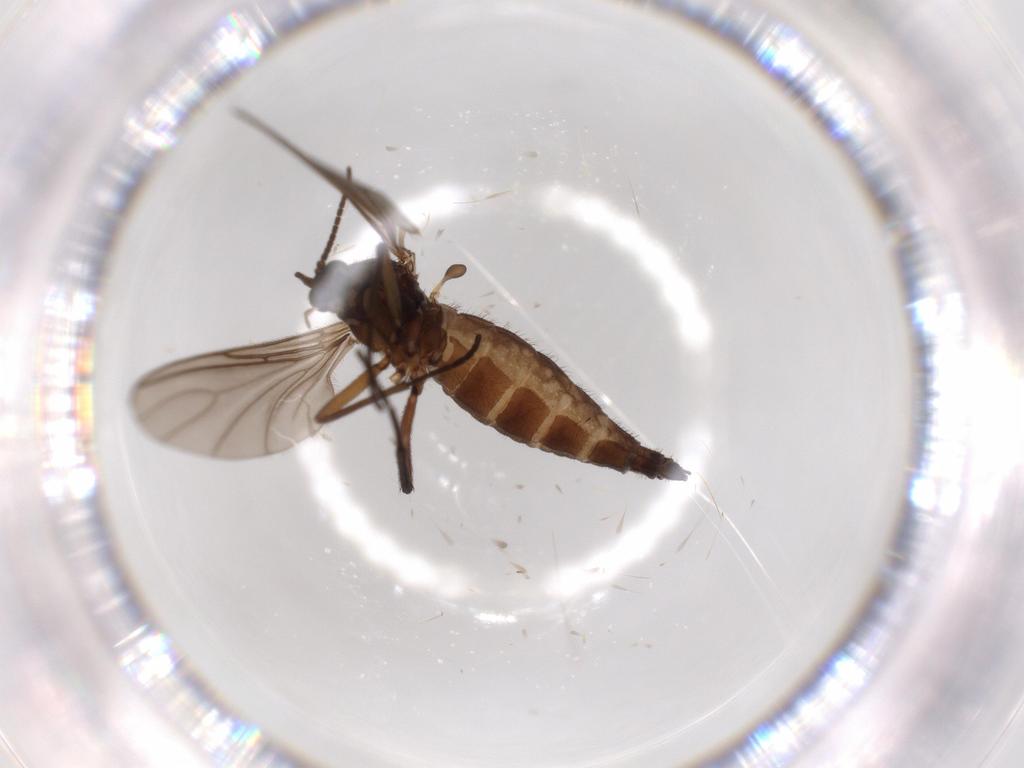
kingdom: Animalia
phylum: Arthropoda
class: Insecta
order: Diptera
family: Sciaridae
